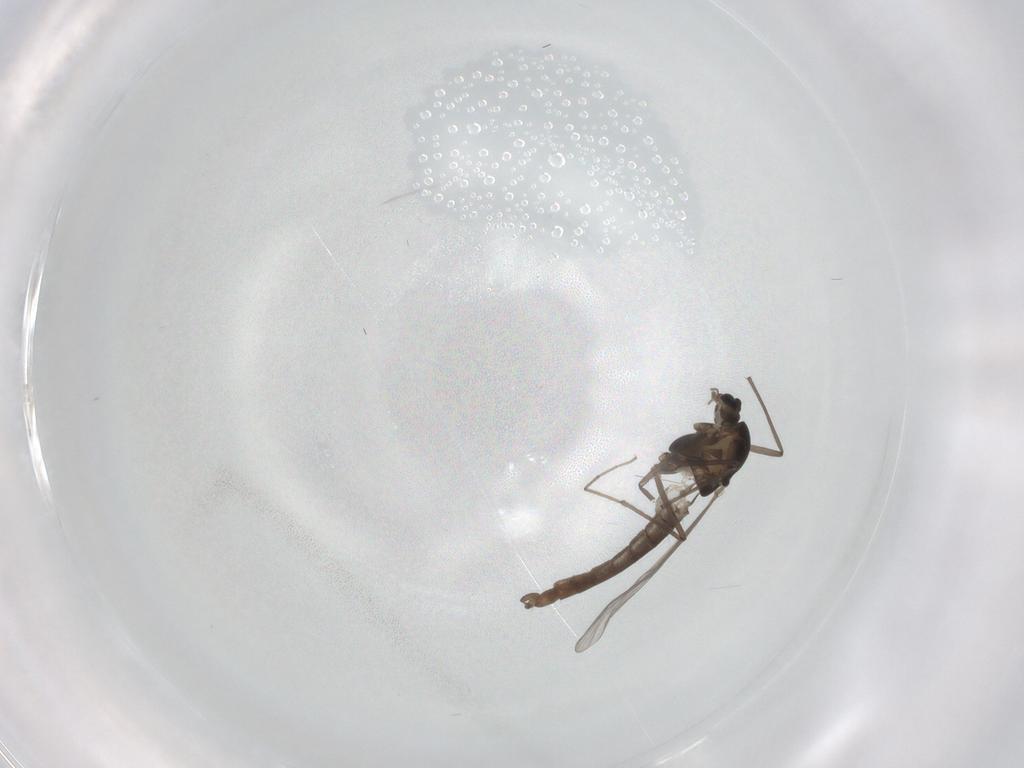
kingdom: Animalia
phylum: Arthropoda
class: Insecta
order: Diptera
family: Chironomidae
